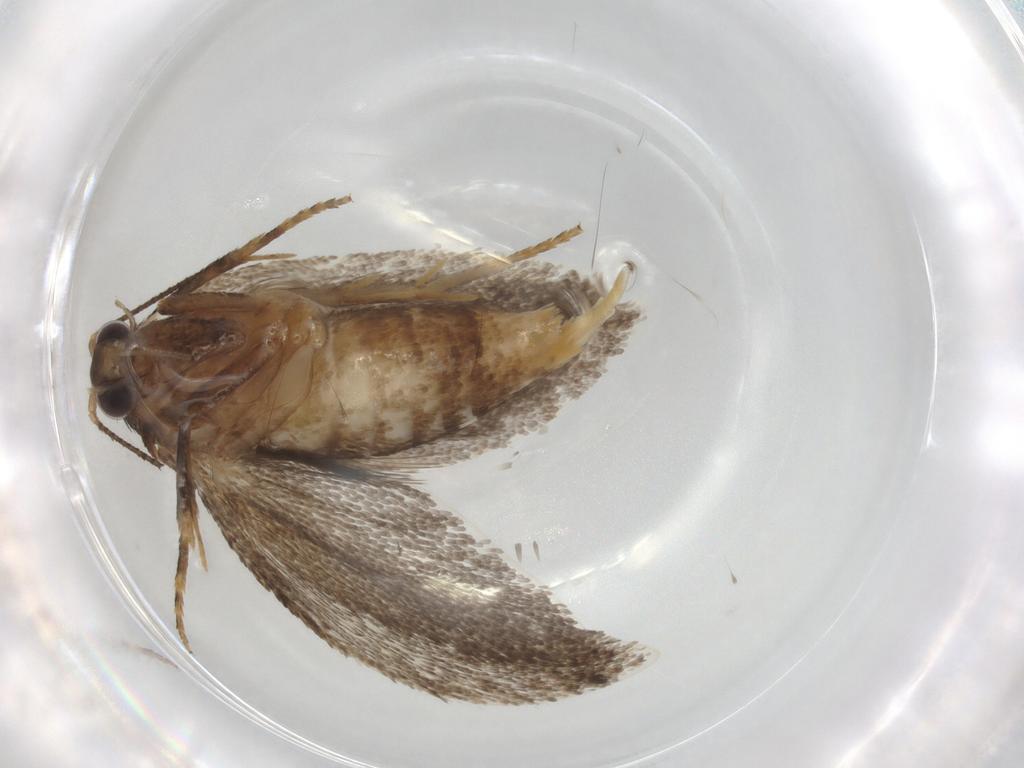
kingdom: Animalia
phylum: Arthropoda
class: Insecta
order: Lepidoptera
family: Eriocottidae
